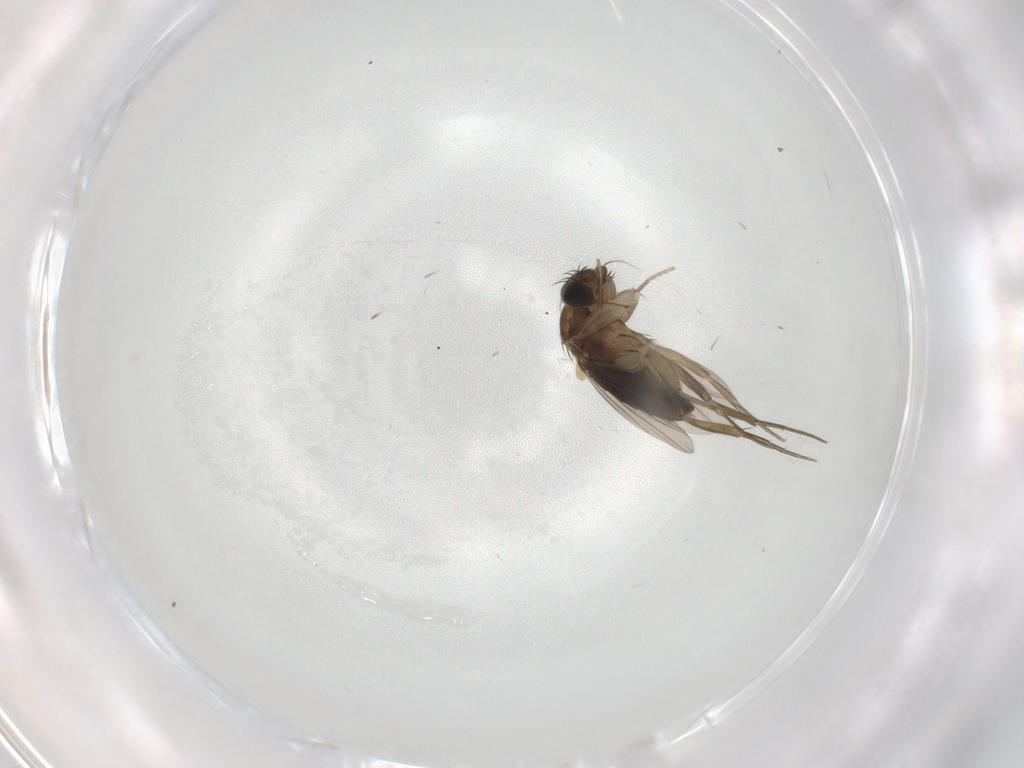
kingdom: Animalia
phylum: Arthropoda
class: Insecta
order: Diptera
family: Phoridae
